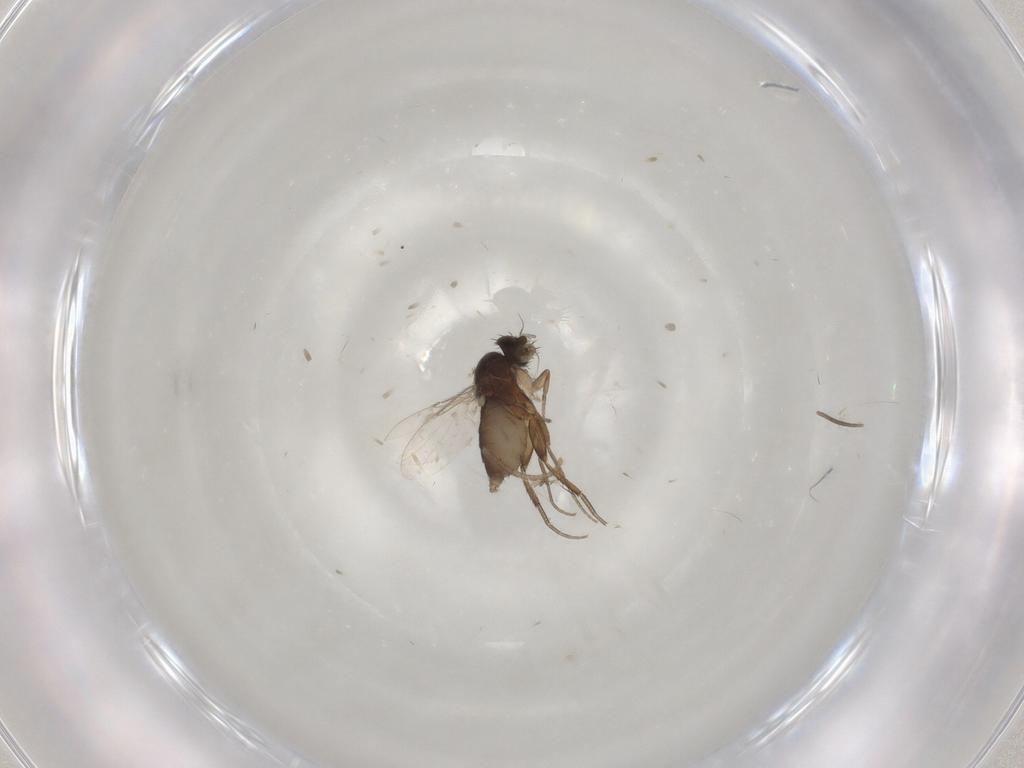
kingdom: Animalia
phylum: Arthropoda
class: Insecta
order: Diptera
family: Phoridae
